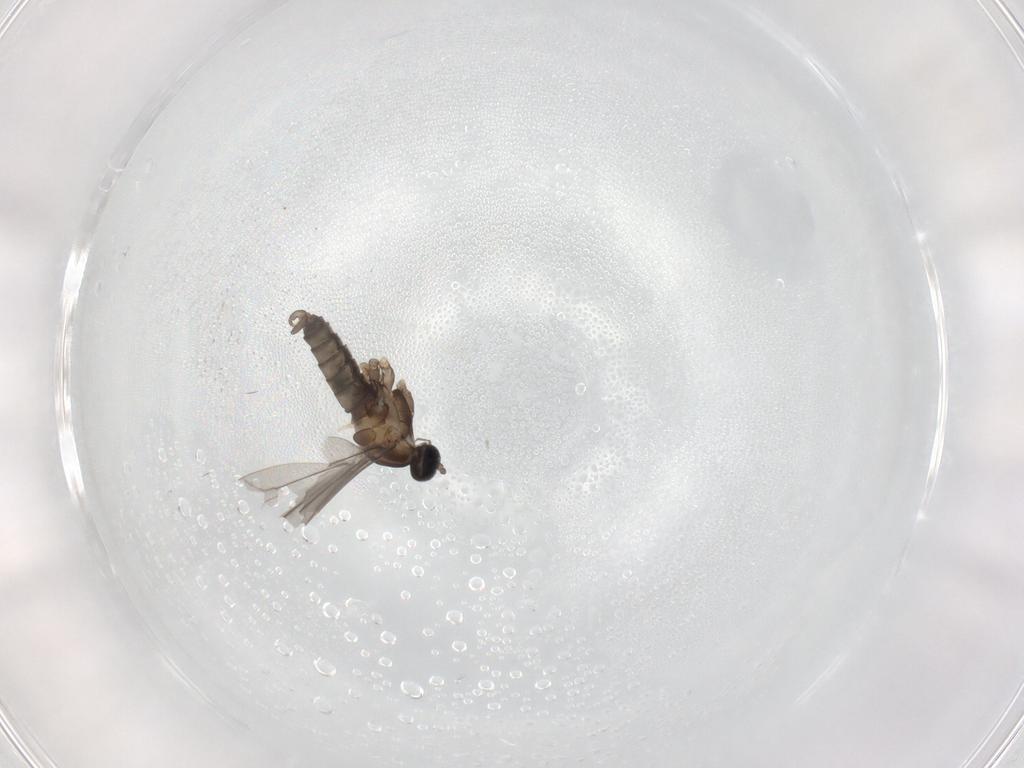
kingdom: Animalia
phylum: Arthropoda
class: Insecta
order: Diptera
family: Cecidomyiidae
